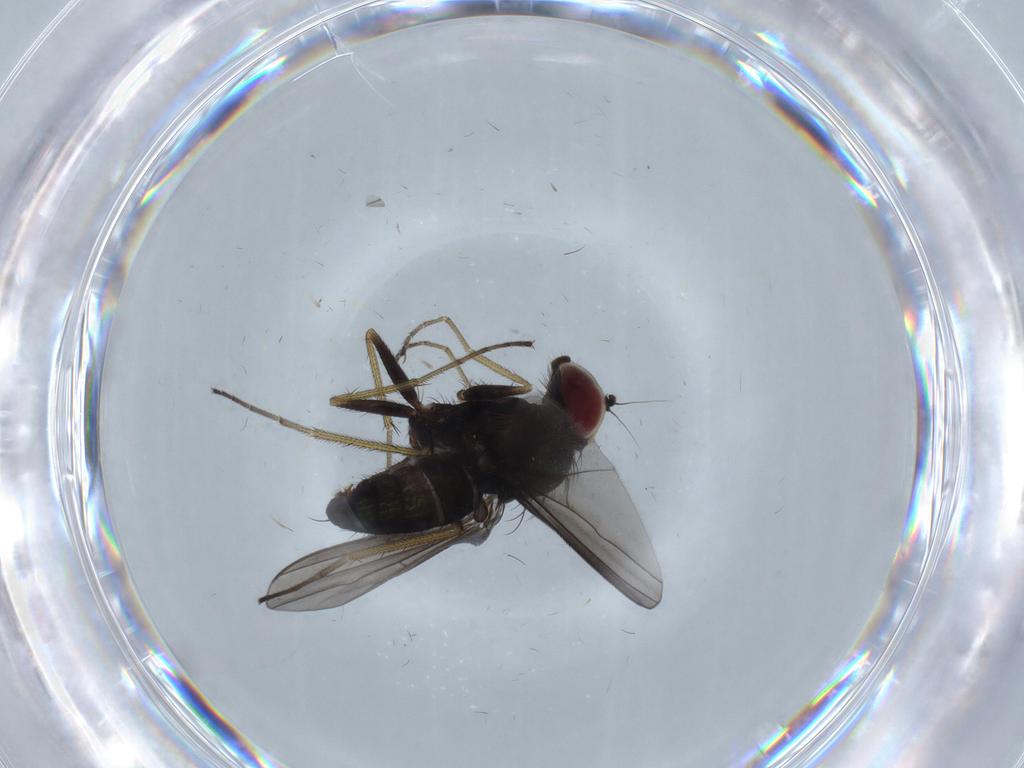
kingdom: Animalia
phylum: Arthropoda
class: Insecta
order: Diptera
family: Dolichopodidae
